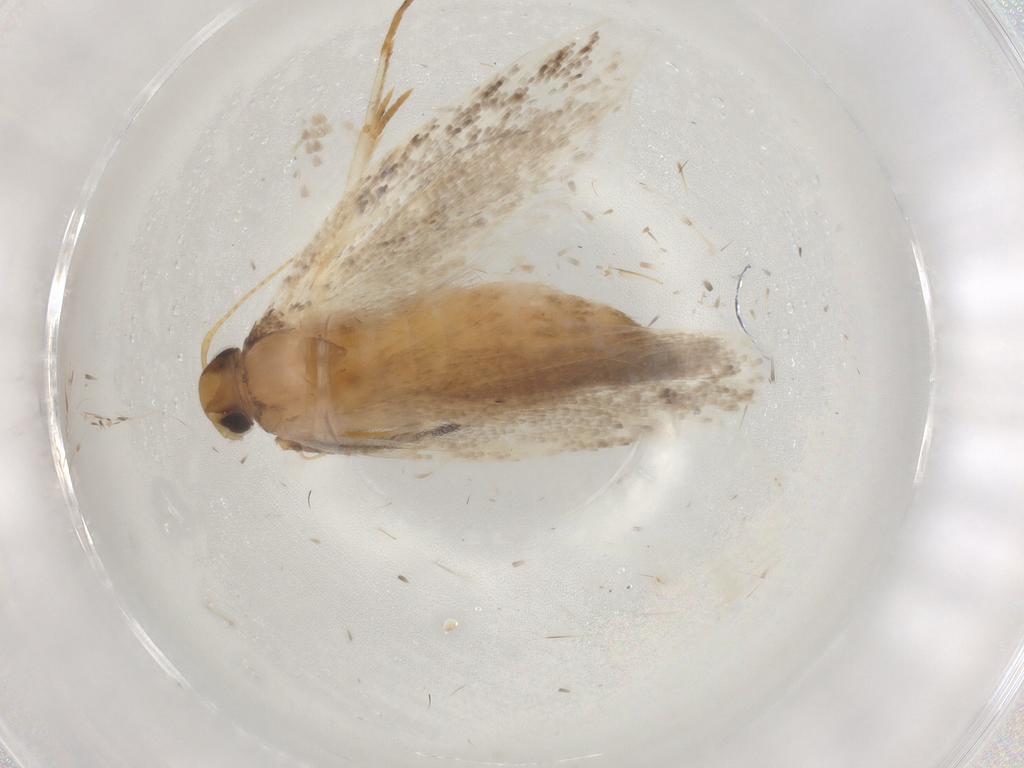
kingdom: Animalia
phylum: Arthropoda
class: Insecta
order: Lepidoptera
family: Gelechiidae
